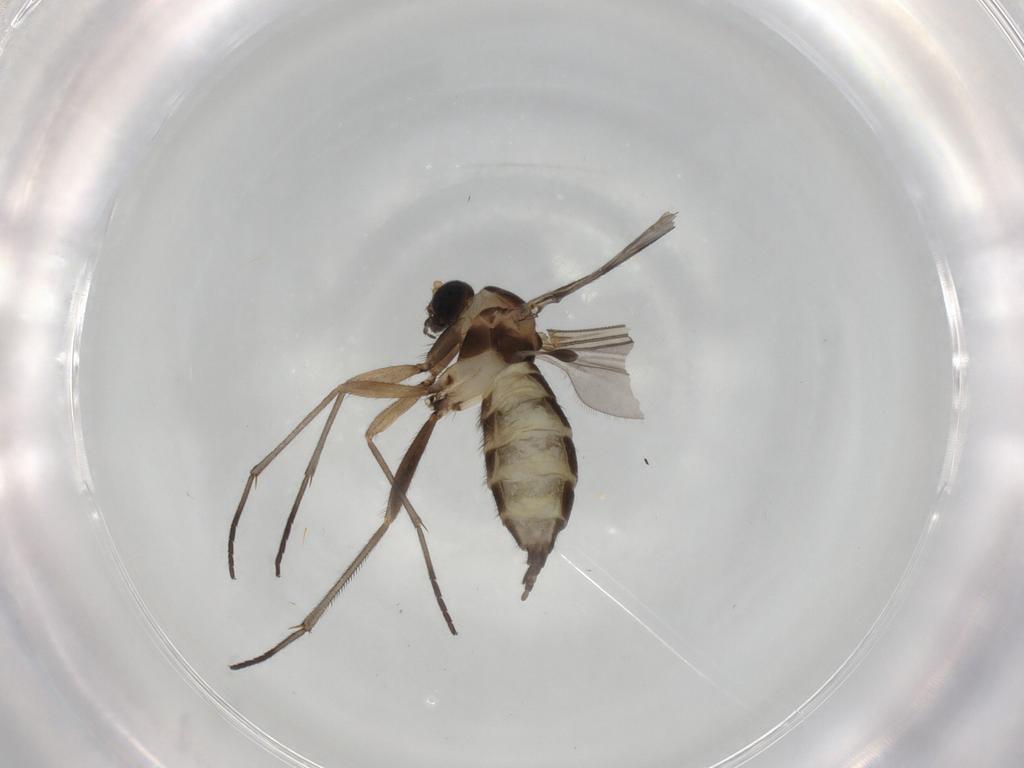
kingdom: Animalia
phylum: Arthropoda
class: Insecta
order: Diptera
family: Sciaridae
